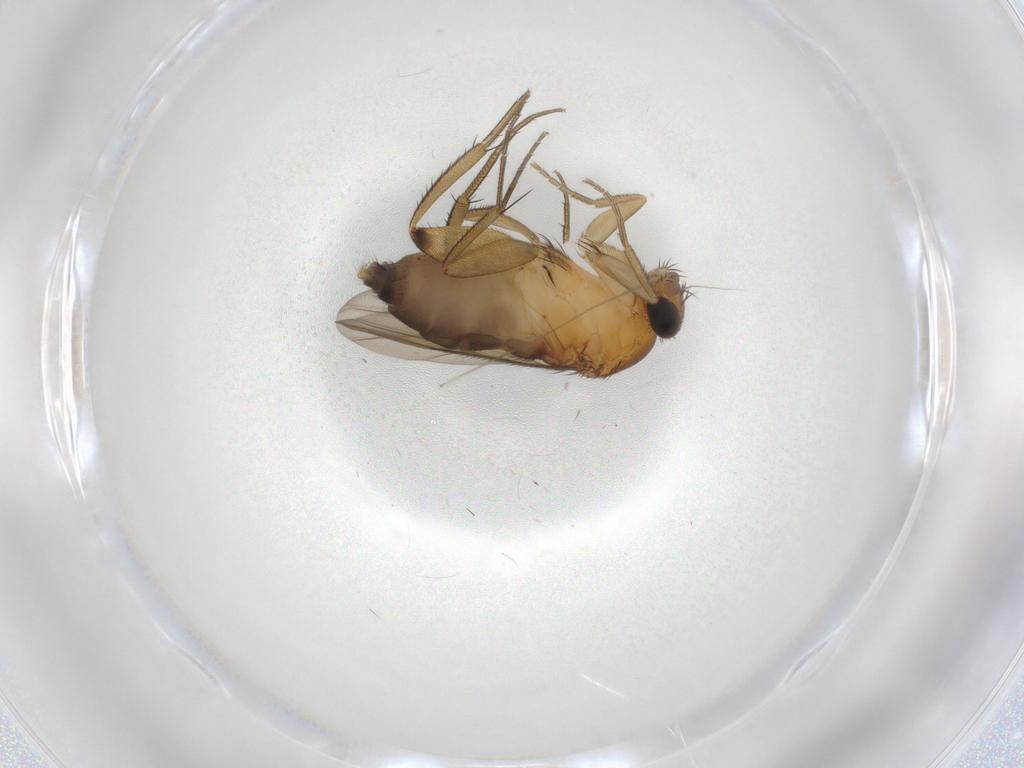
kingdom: Animalia
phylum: Arthropoda
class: Insecta
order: Diptera
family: Phoridae
